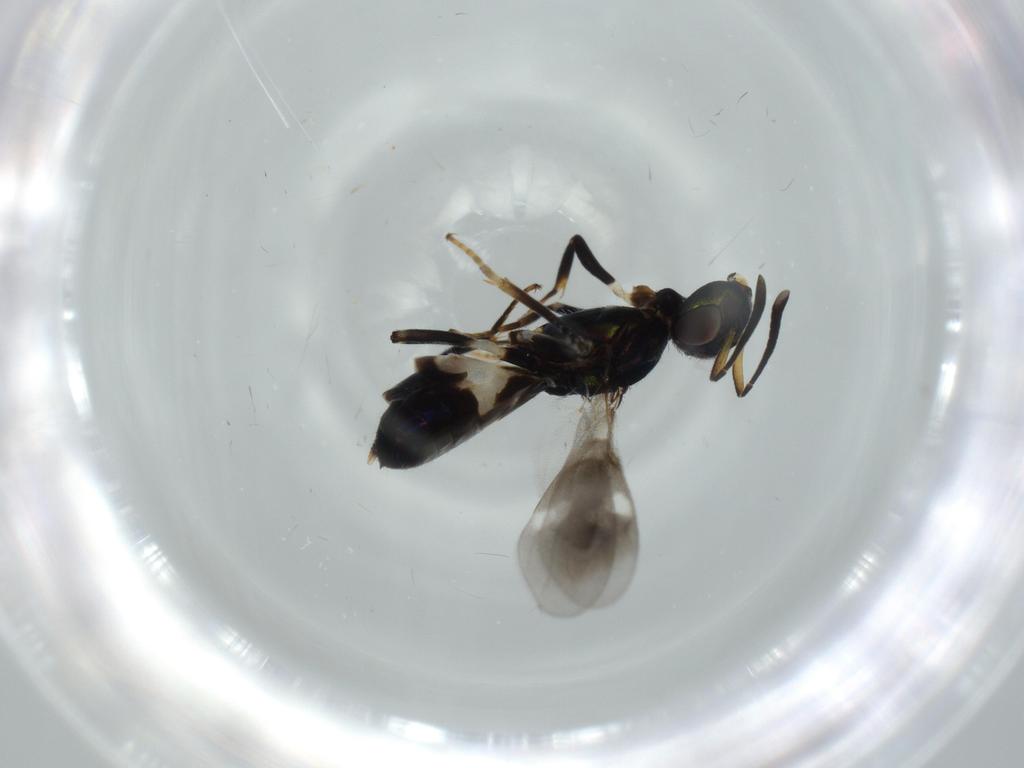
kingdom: Animalia
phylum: Arthropoda
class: Insecta
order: Hymenoptera
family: Eupelmidae
